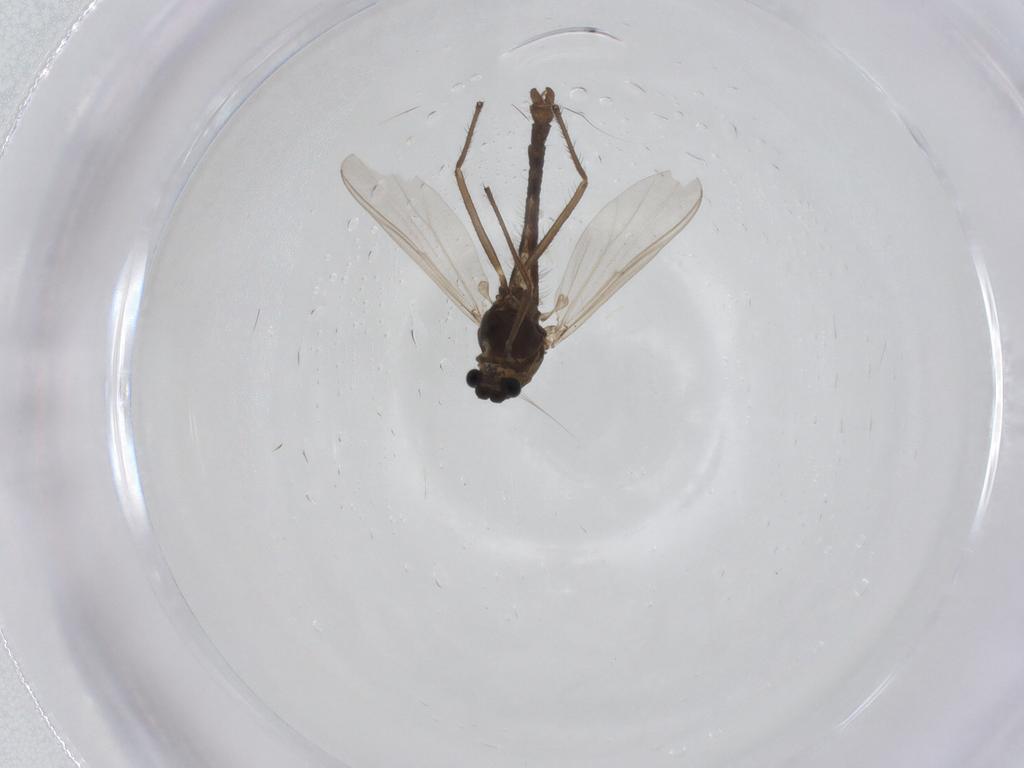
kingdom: Animalia
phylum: Arthropoda
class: Insecta
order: Diptera
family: Chironomidae
